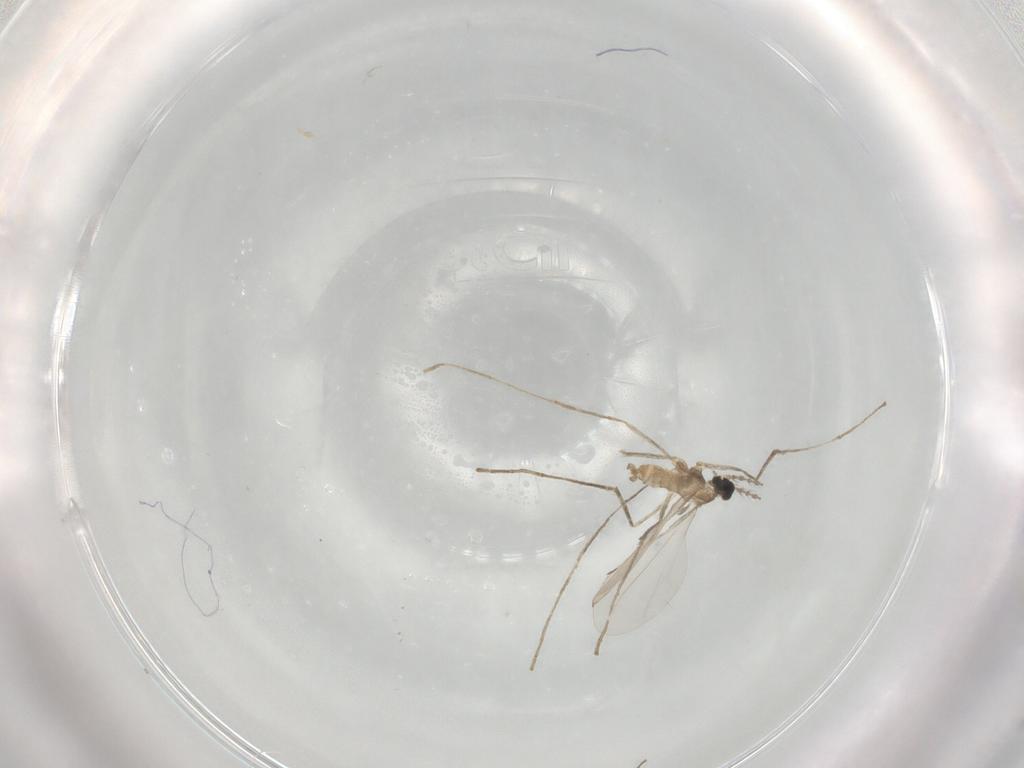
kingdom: Animalia
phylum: Arthropoda
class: Insecta
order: Diptera
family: Cecidomyiidae
